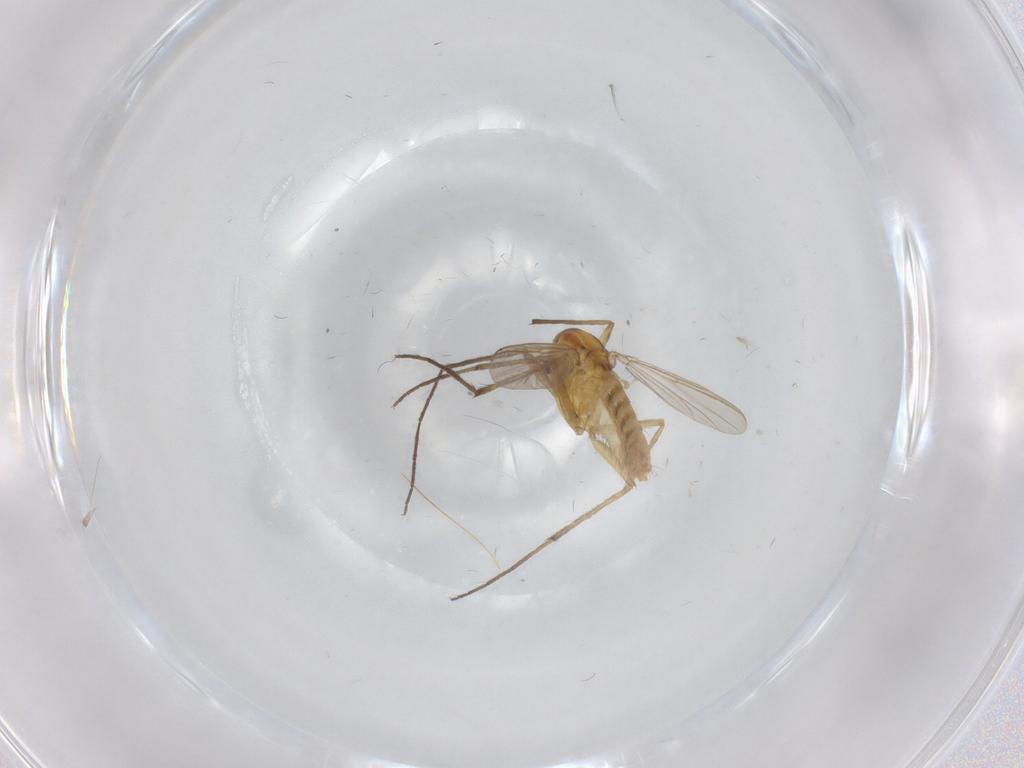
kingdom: Animalia
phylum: Arthropoda
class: Insecta
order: Diptera
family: Chironomidae
